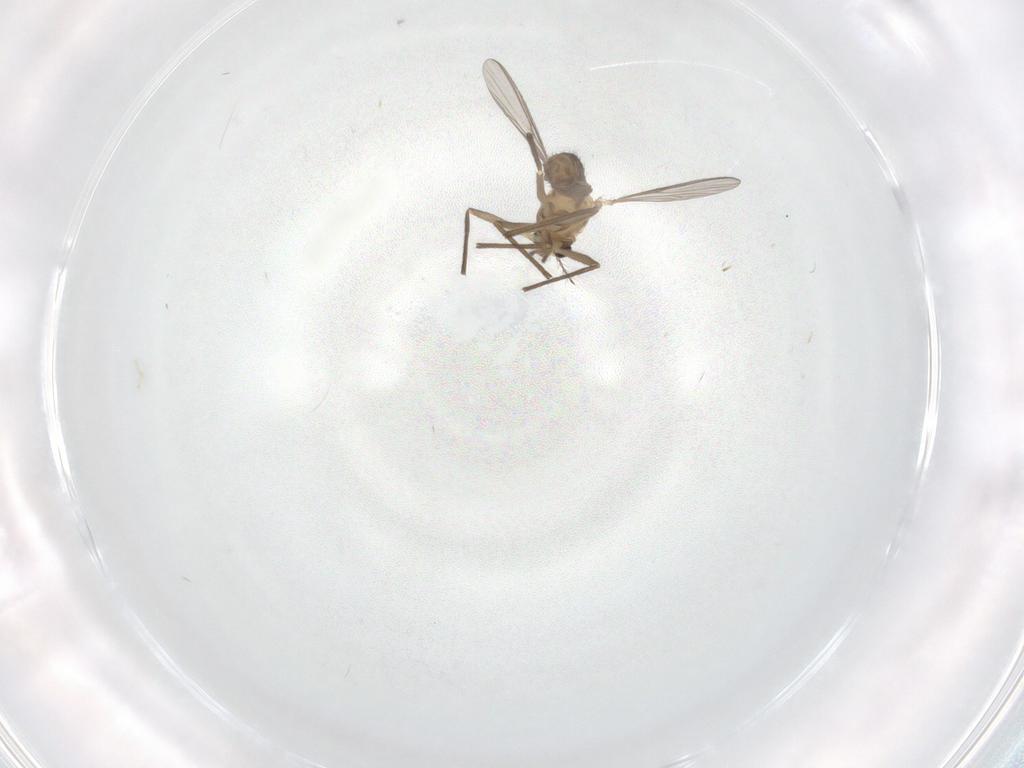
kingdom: Animalia
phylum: Arthropoda
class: Insecta
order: Diptera
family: Chironomidae
